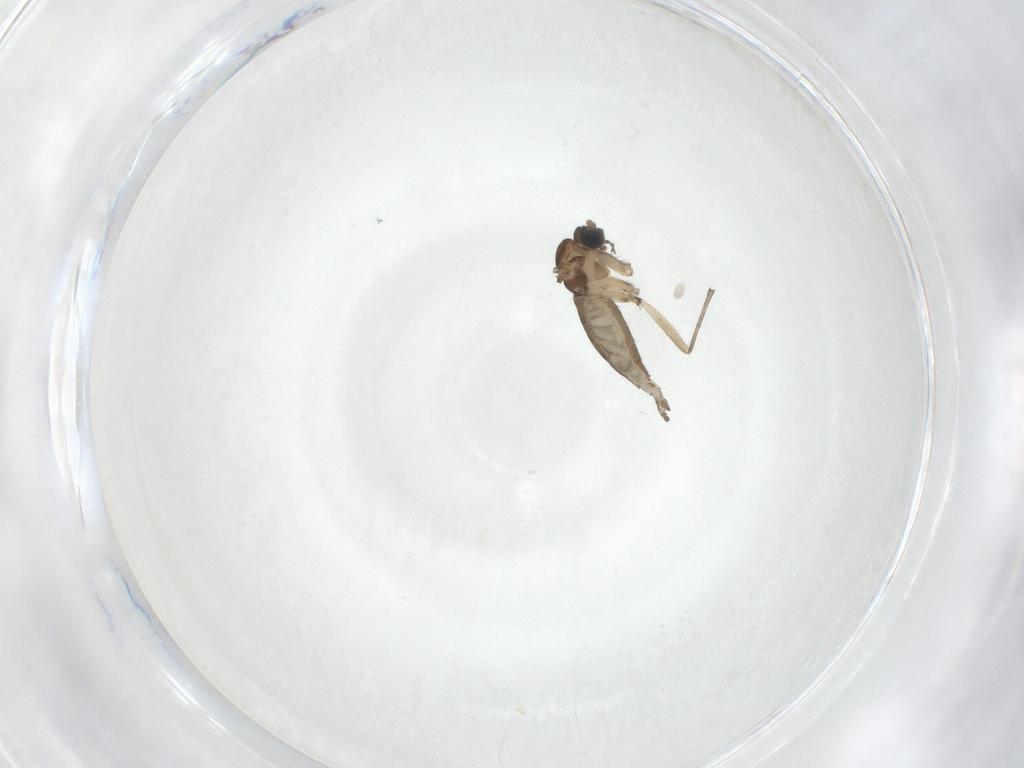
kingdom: Animalia
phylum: Arthropoda
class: Insecta
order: Diptera
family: Sciaridae
